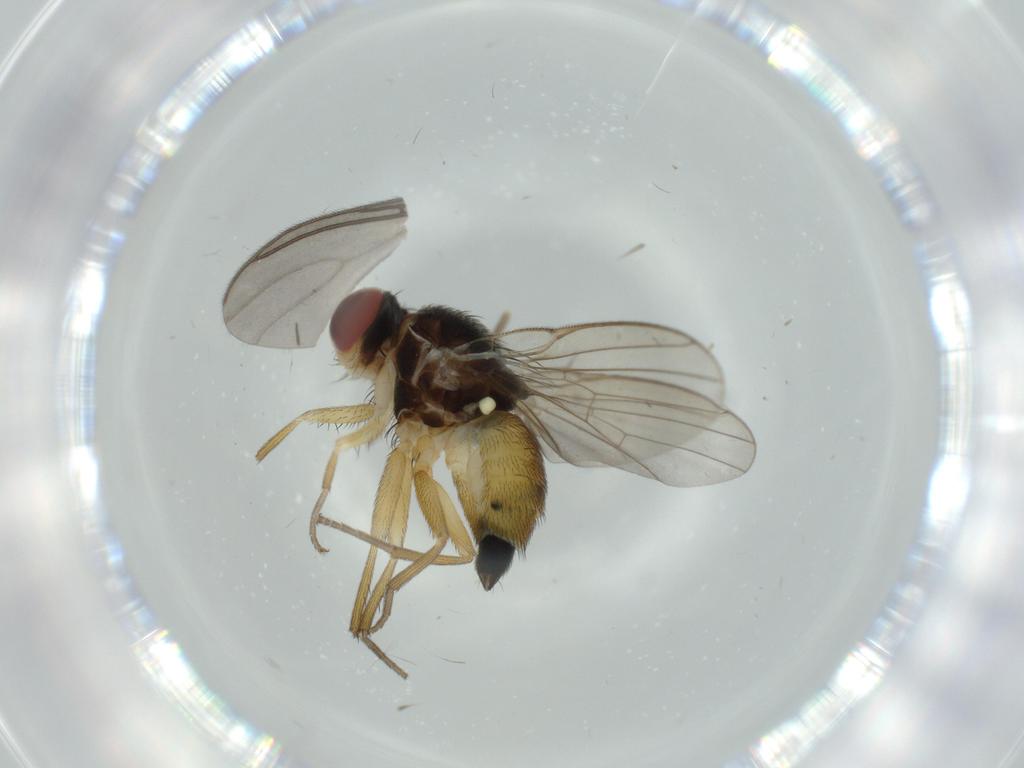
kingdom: Animalia
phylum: Arthropoda
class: Insecta
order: Diptera
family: Agromyzidae
